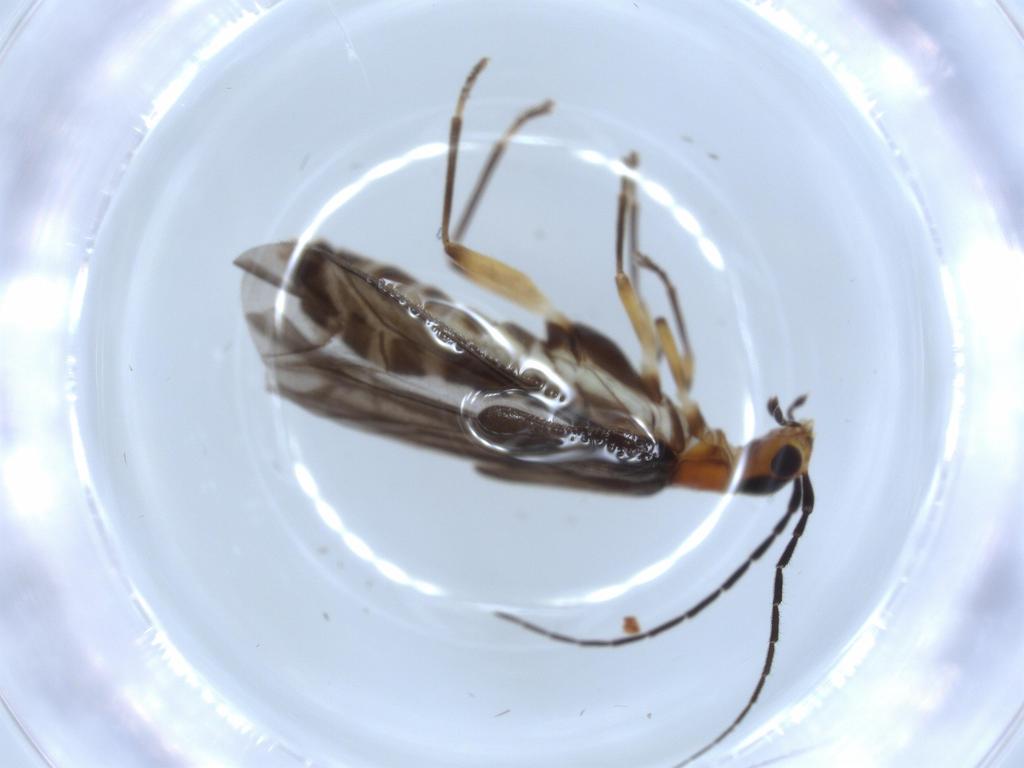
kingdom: Animalia
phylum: Arthropoda
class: Insecta
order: Coleoptera
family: Cantharidae
